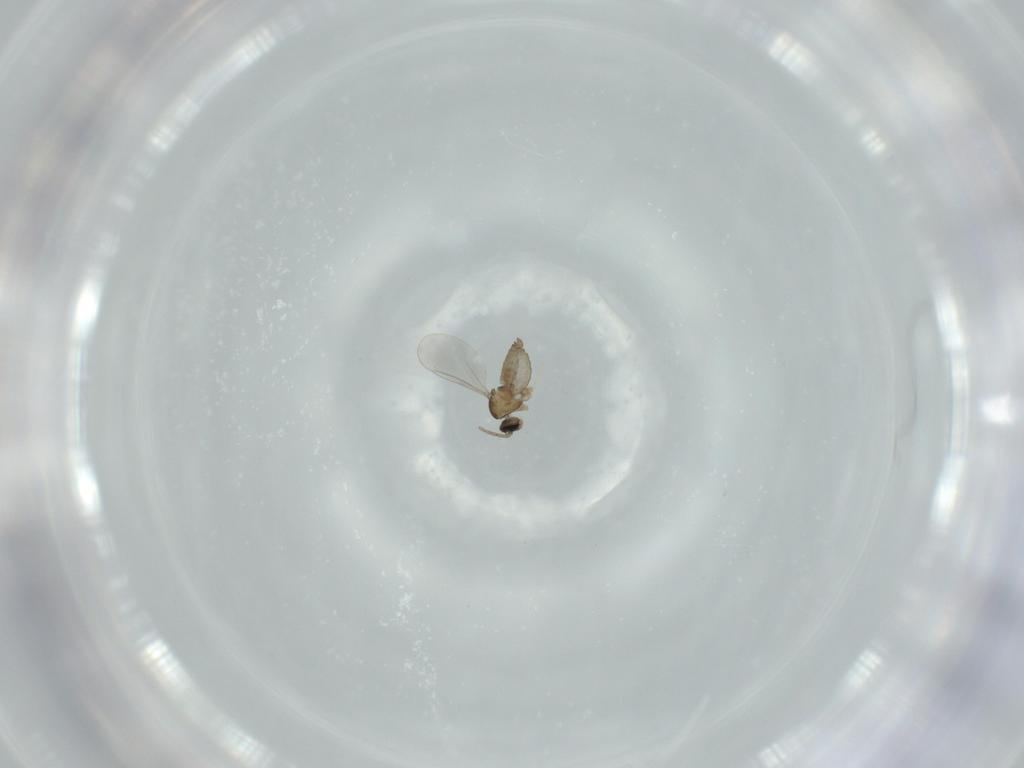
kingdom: Animalia
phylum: Arthropoda
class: Insecta
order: Diptera
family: Cecidomyiidae
